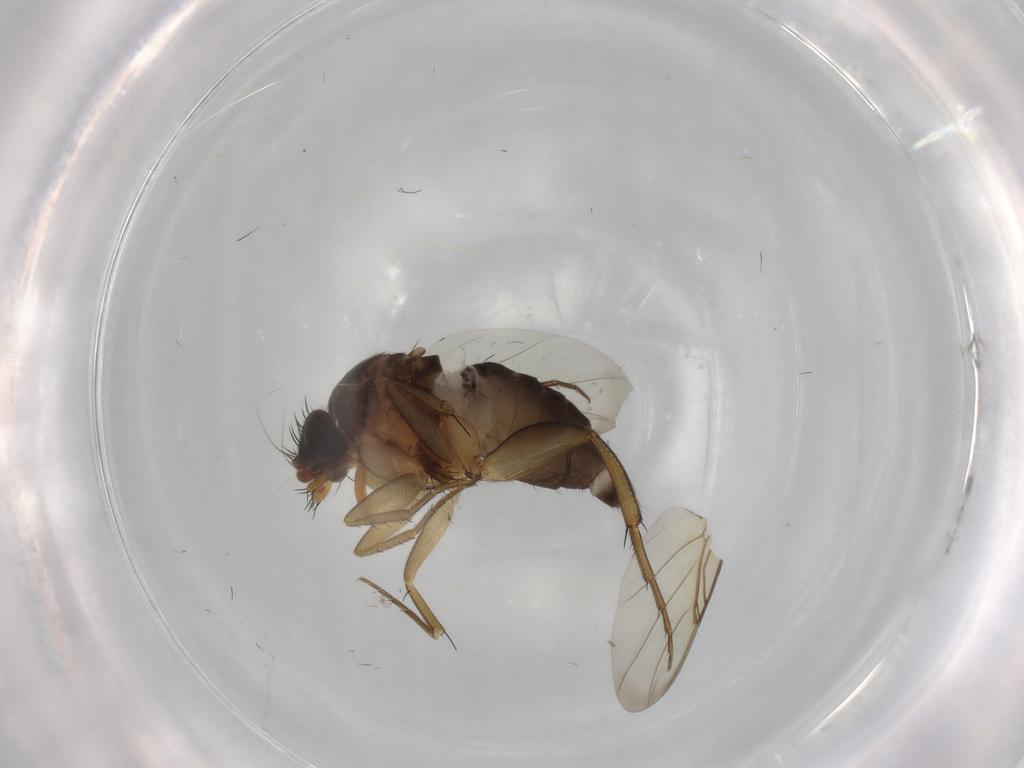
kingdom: Animalia
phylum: Arthropoda
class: Insecta
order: Diptera
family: Phoridae
